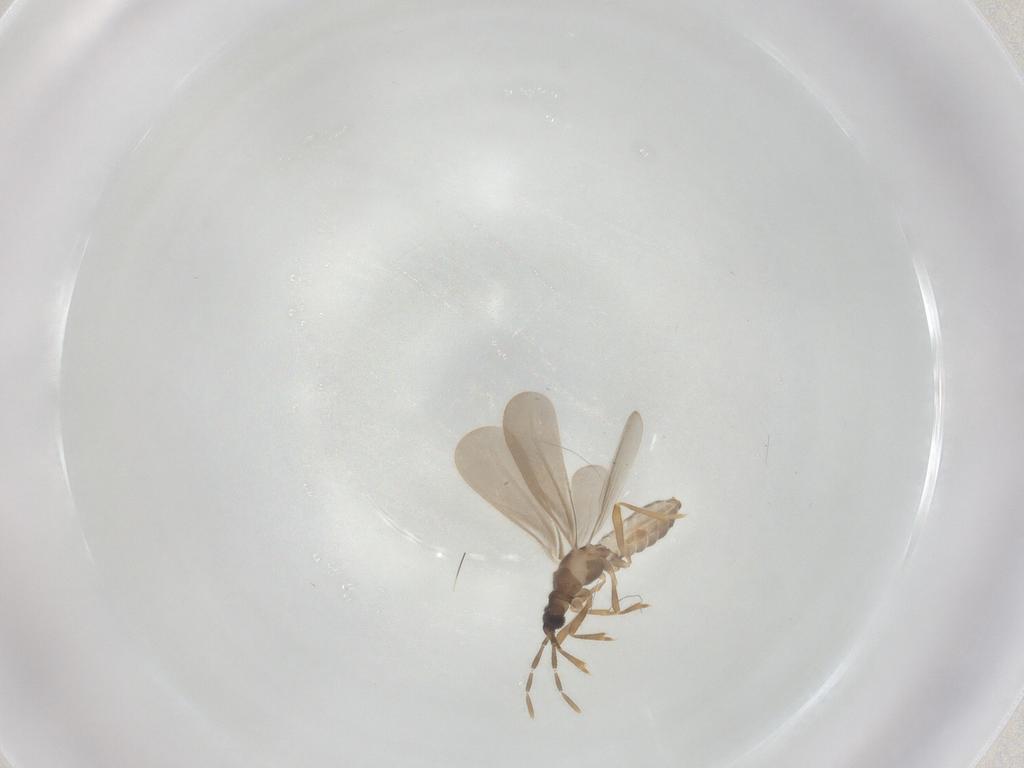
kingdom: Animalia
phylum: Arthropoda
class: Insecta
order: Hemiptera
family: Enicocephalidae
